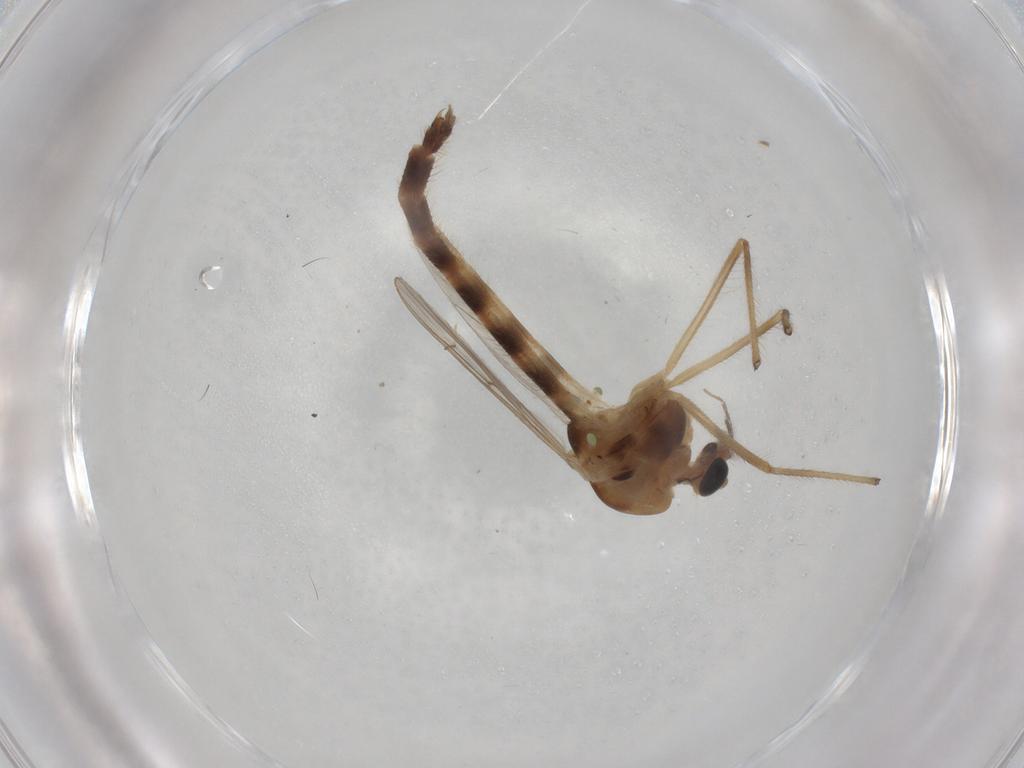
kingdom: Animalia
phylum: Arthropoda
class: Insecta
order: Diptera
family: Chironomidae
